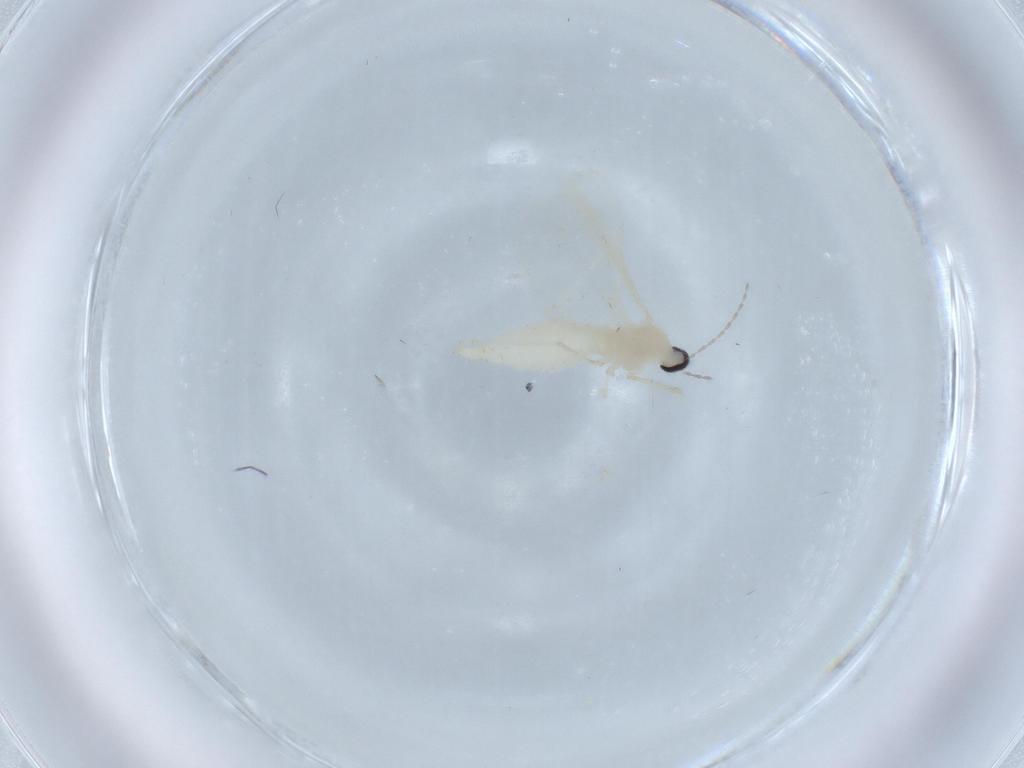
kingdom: Animalia
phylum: Arthropoda
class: Insecta
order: Diptera
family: Cecidomyiidae
